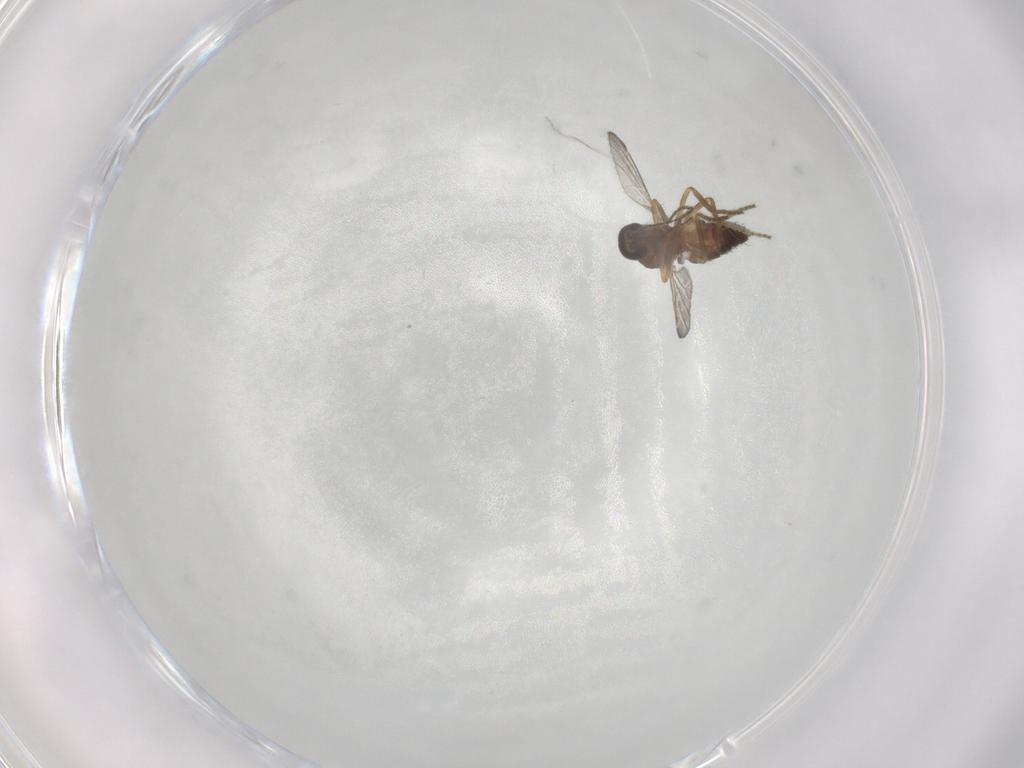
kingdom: Animalia
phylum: Arthropoda
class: Insecta
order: Diptera
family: Ceratopogonidae
